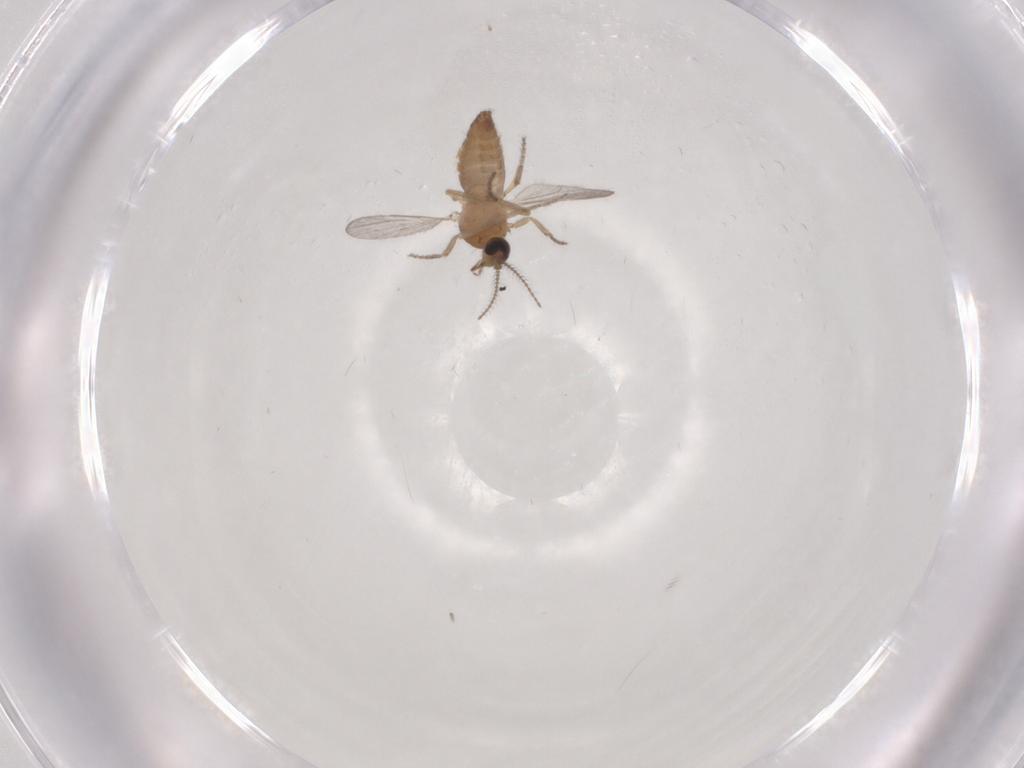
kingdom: Animalia
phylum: Arthropoda
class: Insecta
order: Diptera
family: Ceratopogonidae
